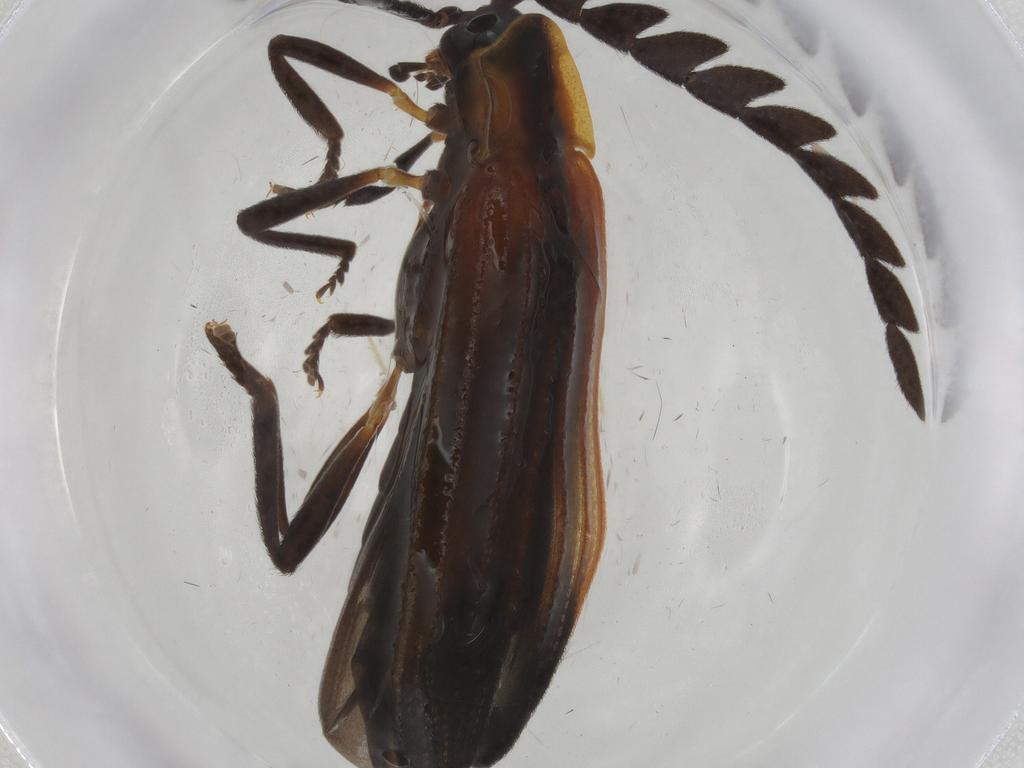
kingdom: Animalia
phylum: Arthropoda
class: Insecta
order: Coleoptera
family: Lycidae
